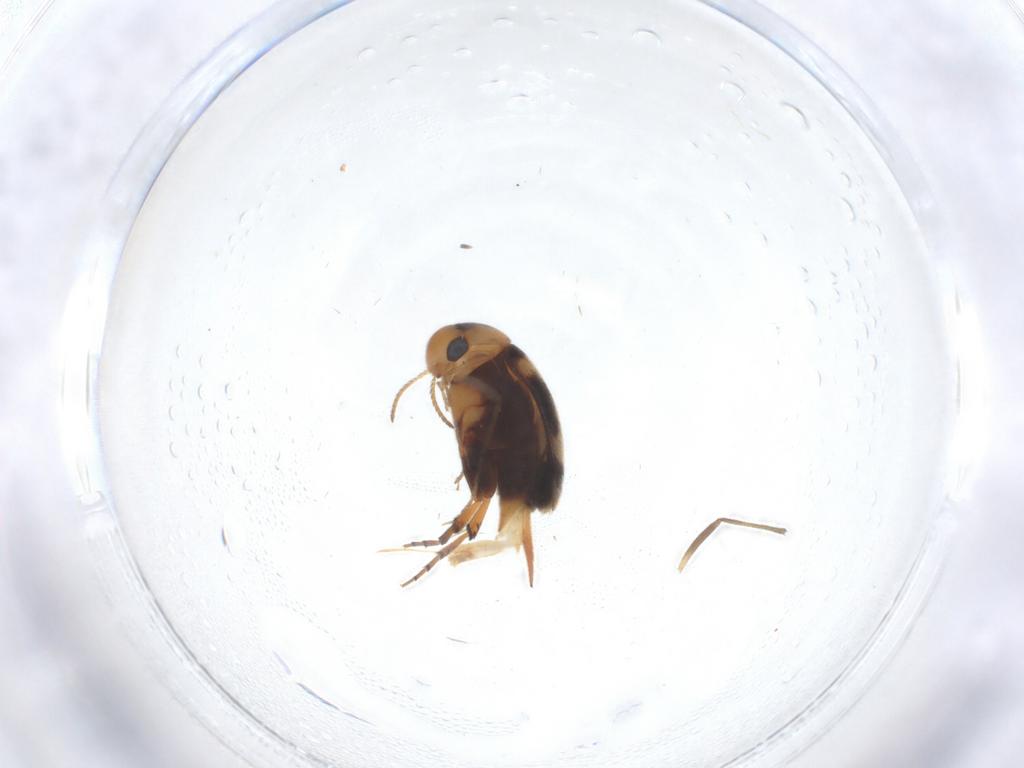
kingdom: Animalia
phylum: Arthropoda
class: Insecta
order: Coleoptera
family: Mordellidae
